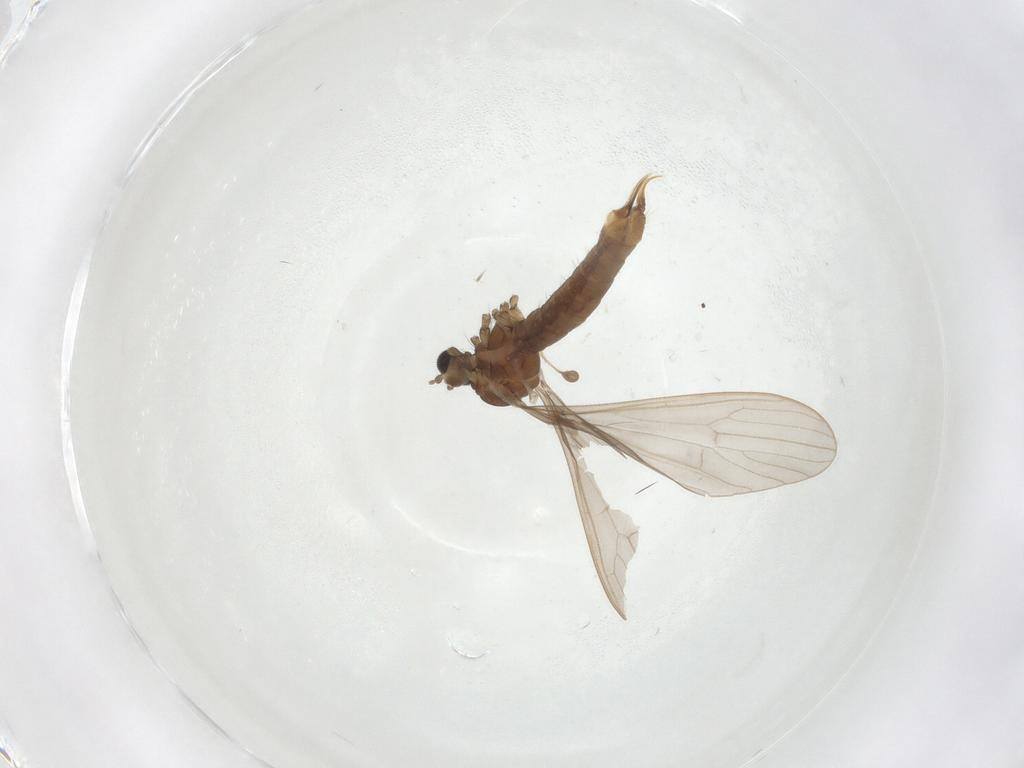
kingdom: Animalia
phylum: Arthropoda
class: Insecta
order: Diptera
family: Limoniidae
